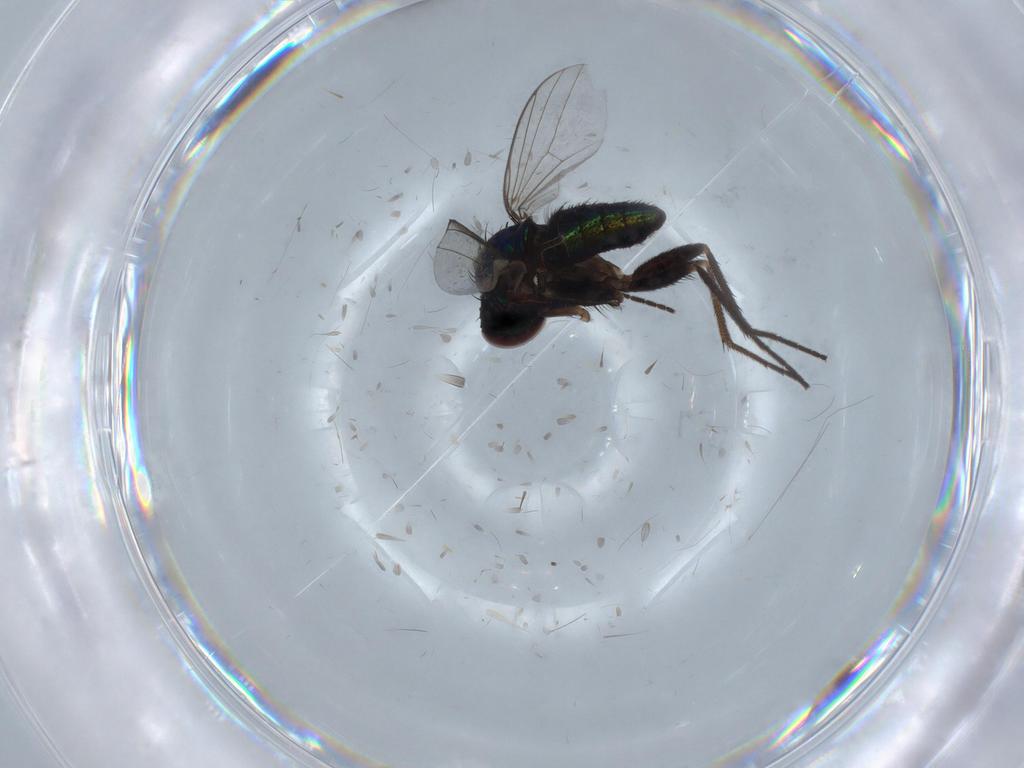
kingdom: Animalia
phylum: Arthropoda
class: Insecta
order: Diptera
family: Dolichopodidae
